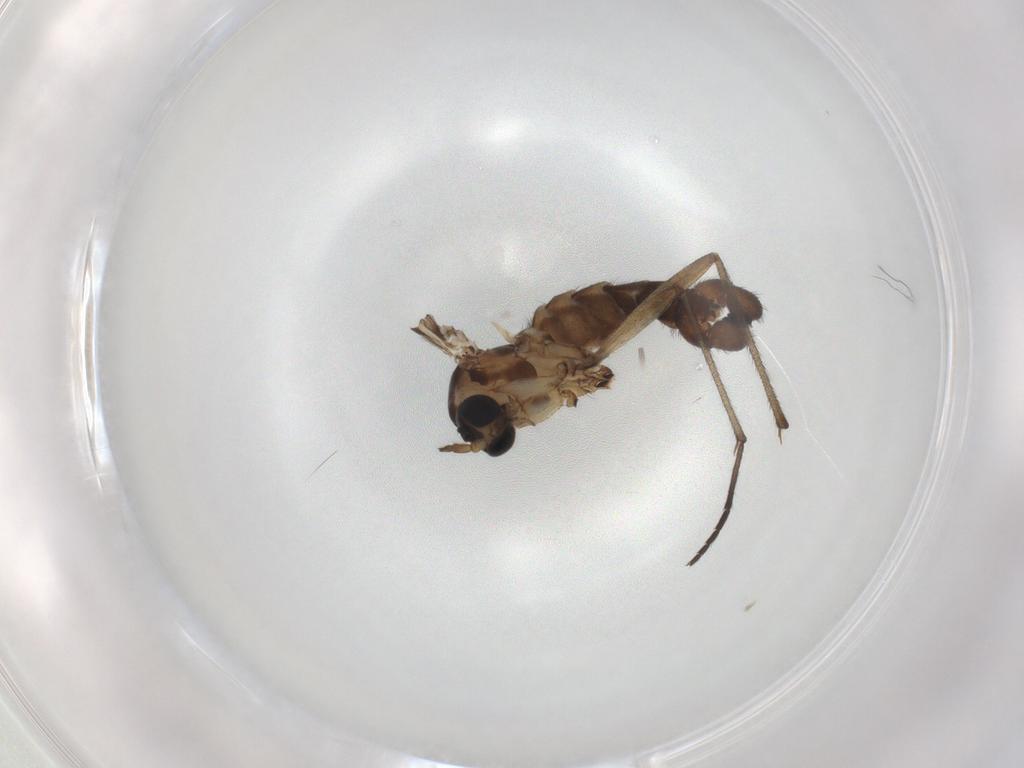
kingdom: Animalia
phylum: Arthropoda
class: Insecta
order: Diptera
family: Sciaridae
